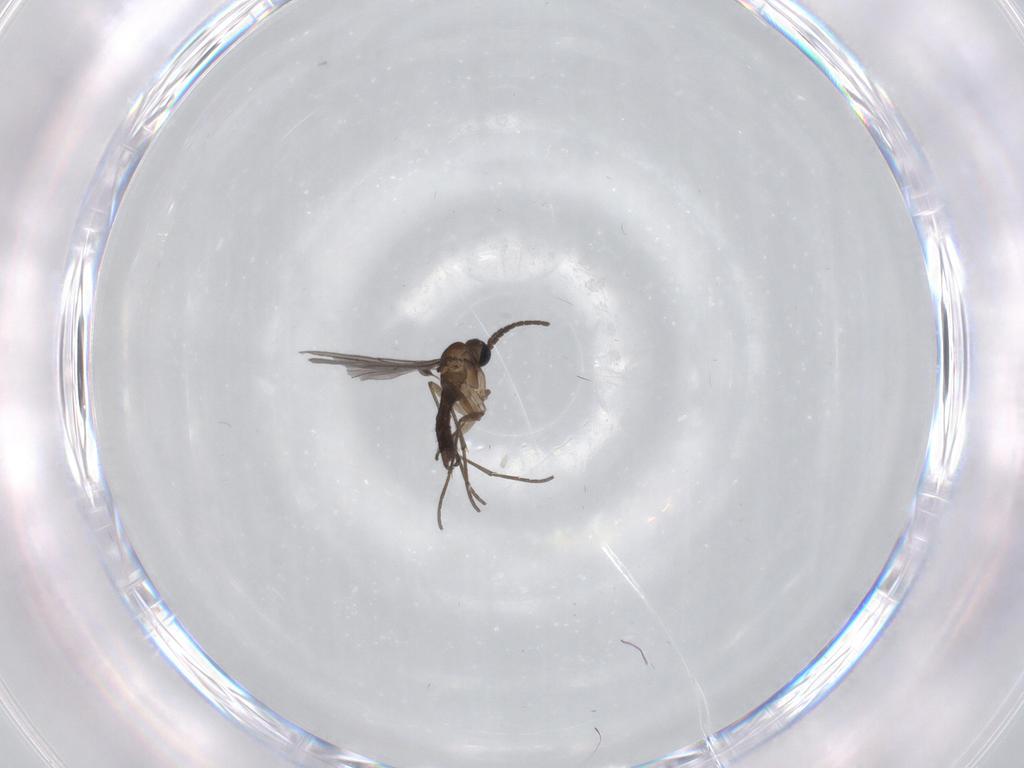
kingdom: Animalia
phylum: Arthropoda
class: Insecta
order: Diptera
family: Sciaridae
